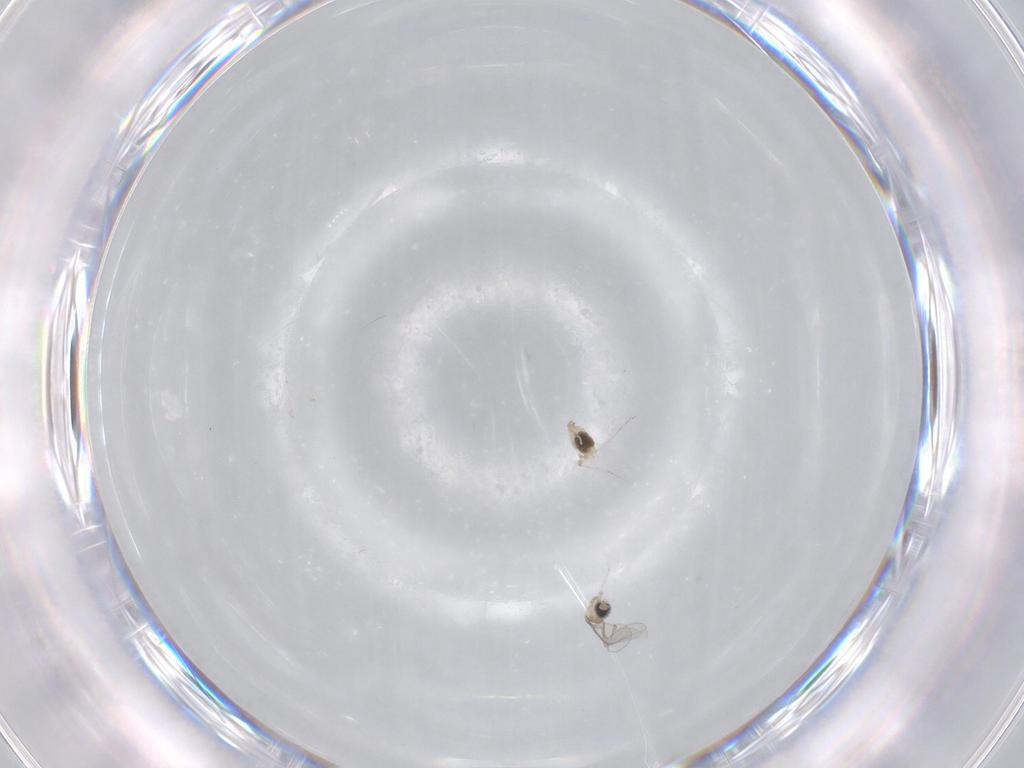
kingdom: Animalia
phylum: Arthropoda
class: Insecta
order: Diptera
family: Cecidomyiidae
